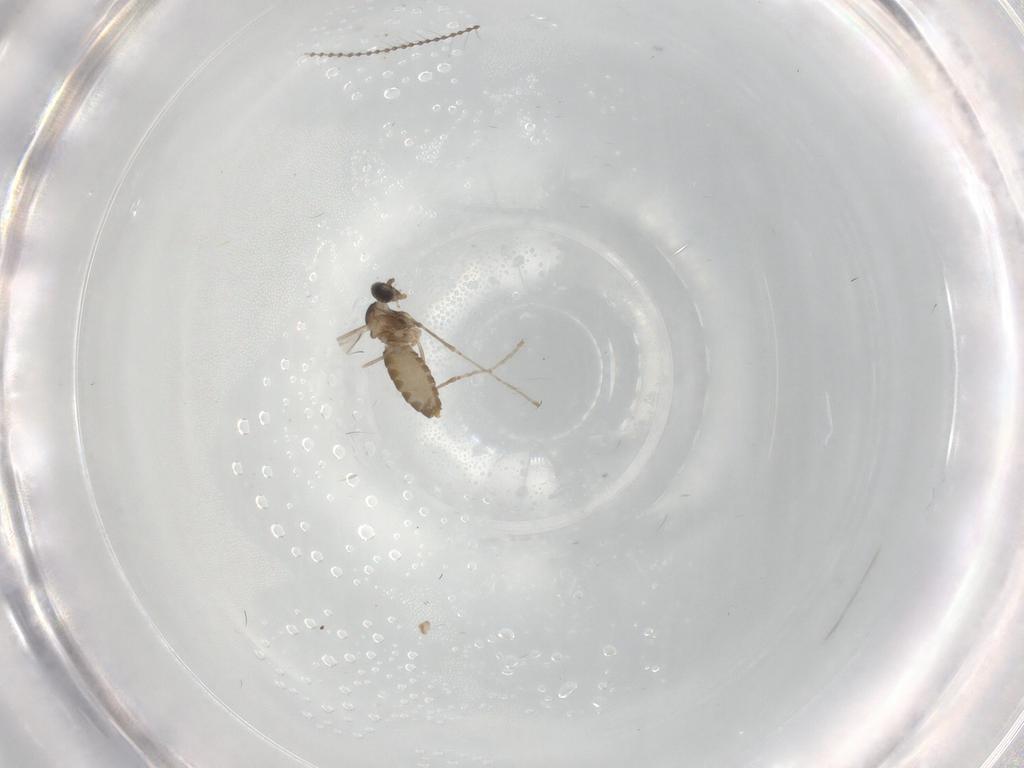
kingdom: Animalia
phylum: Arthropoda
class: Insecta
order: Diptera
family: Cecidomyiidae
